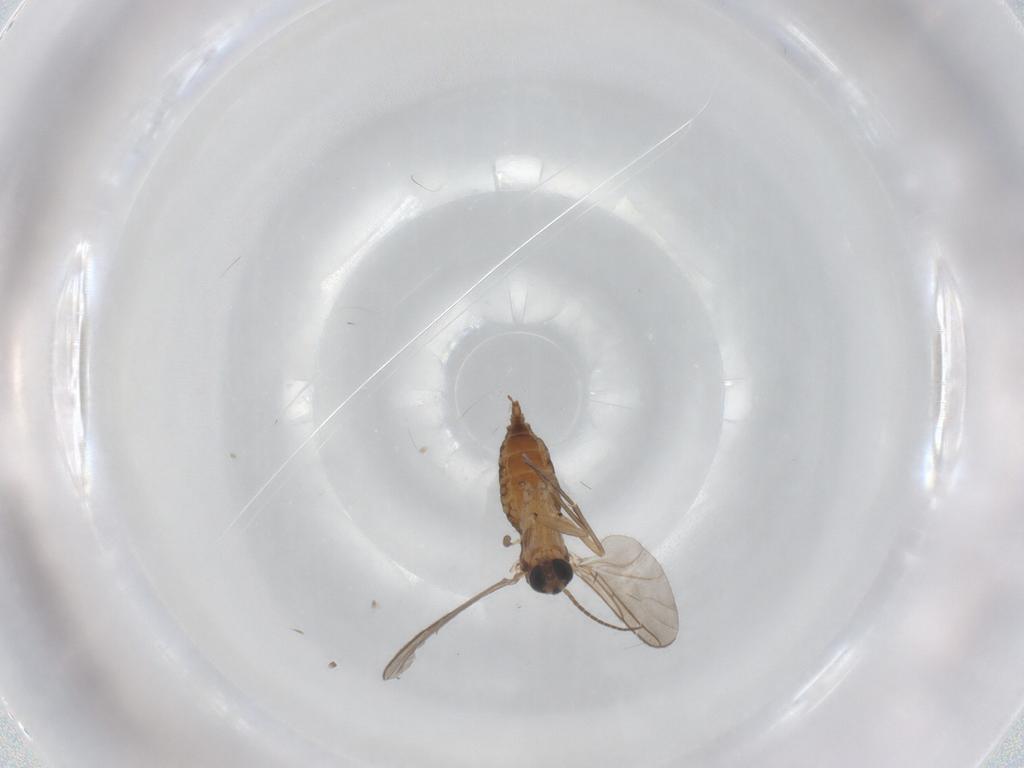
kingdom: Animalia
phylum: Arthropoda
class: Insecta
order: Diptera
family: Sciaridae
